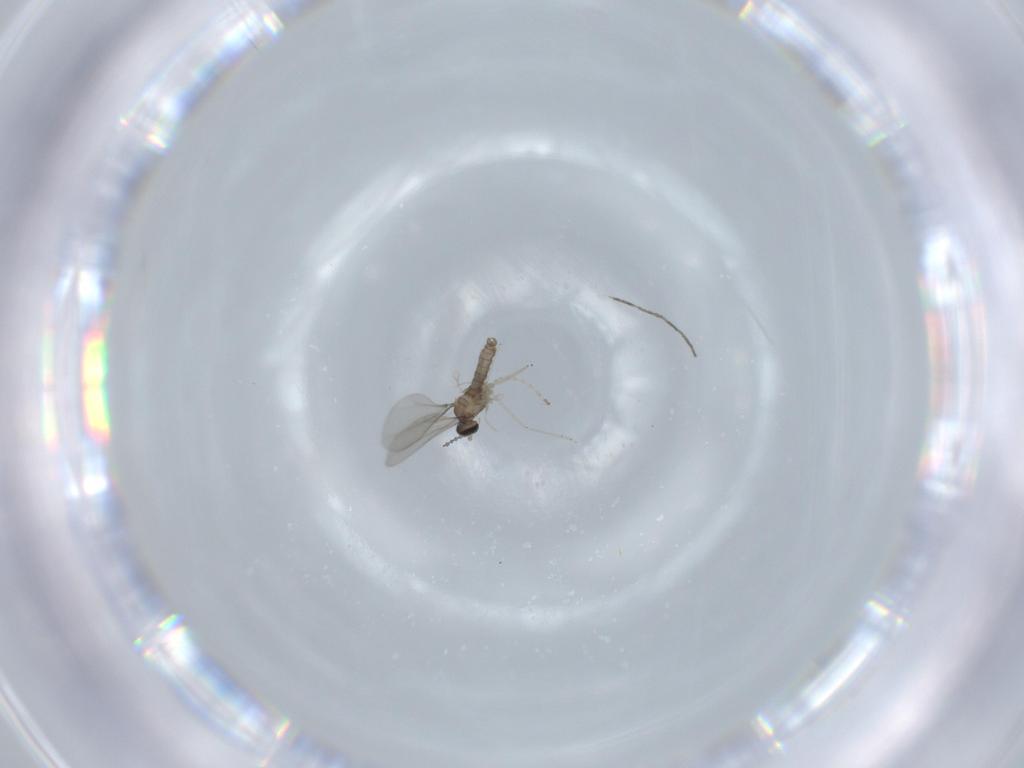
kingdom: Animalia
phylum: Arthropoda
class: Insecta
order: Diptera
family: Cecidomyiidae
